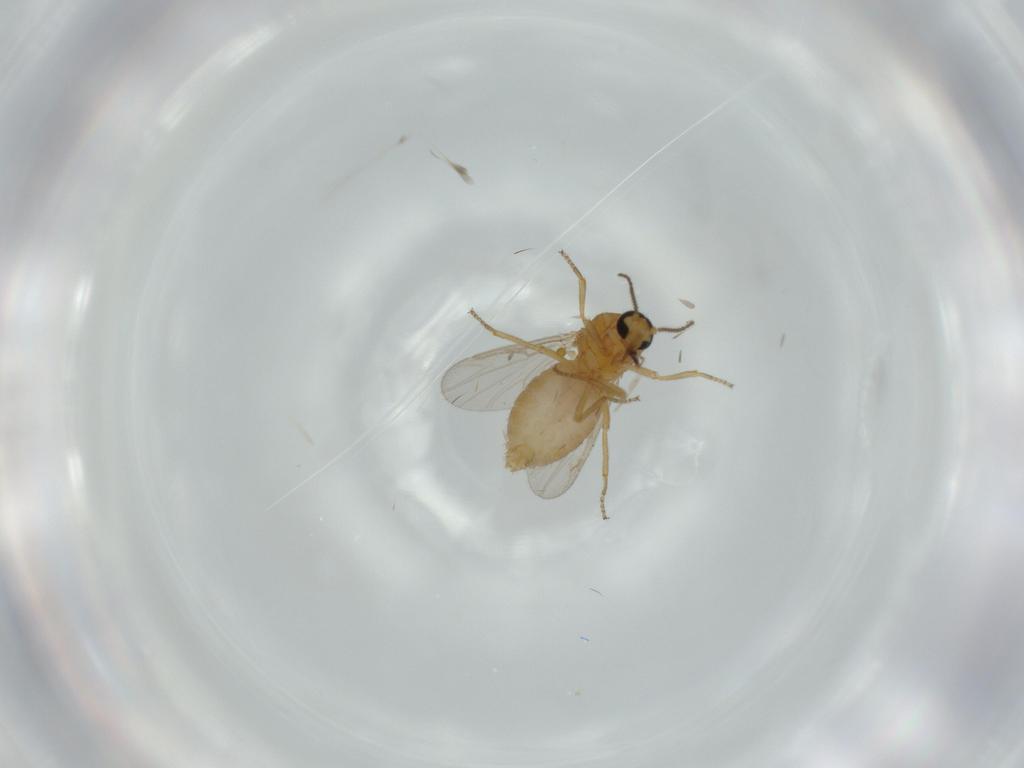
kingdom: Animalia
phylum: Arthropoda
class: Insecta
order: Diptera
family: Ceratopogonidae
